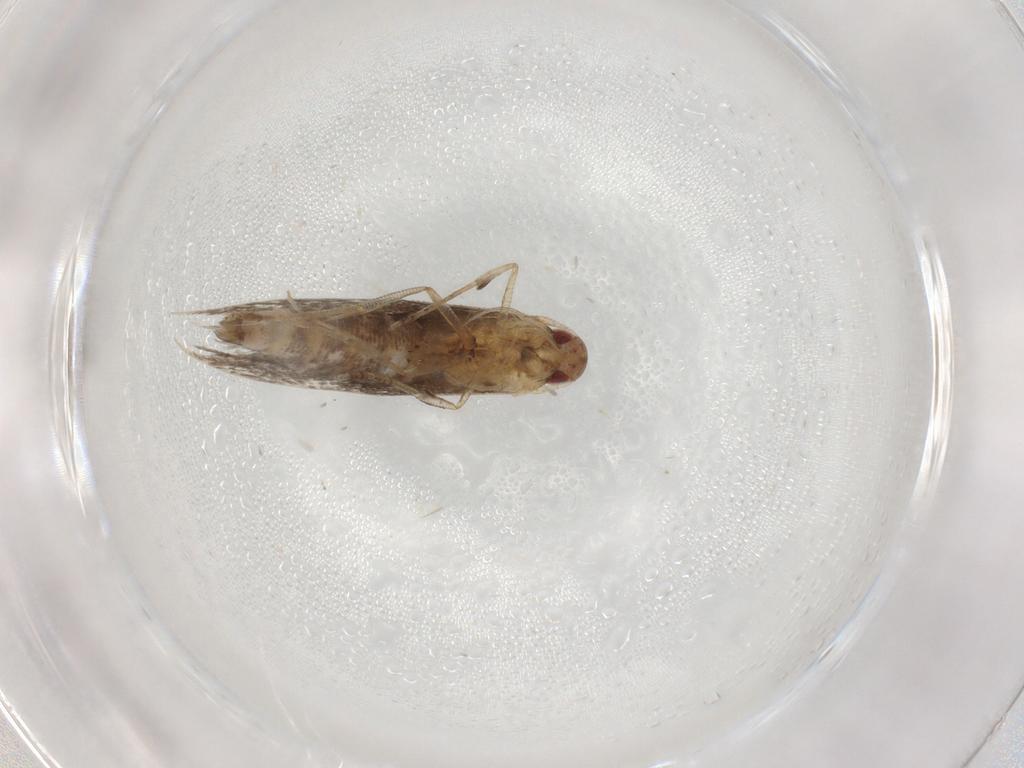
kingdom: Animalia
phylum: Arthropoda
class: Insecta
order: Lepidoptera
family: Cosmopterigidae
